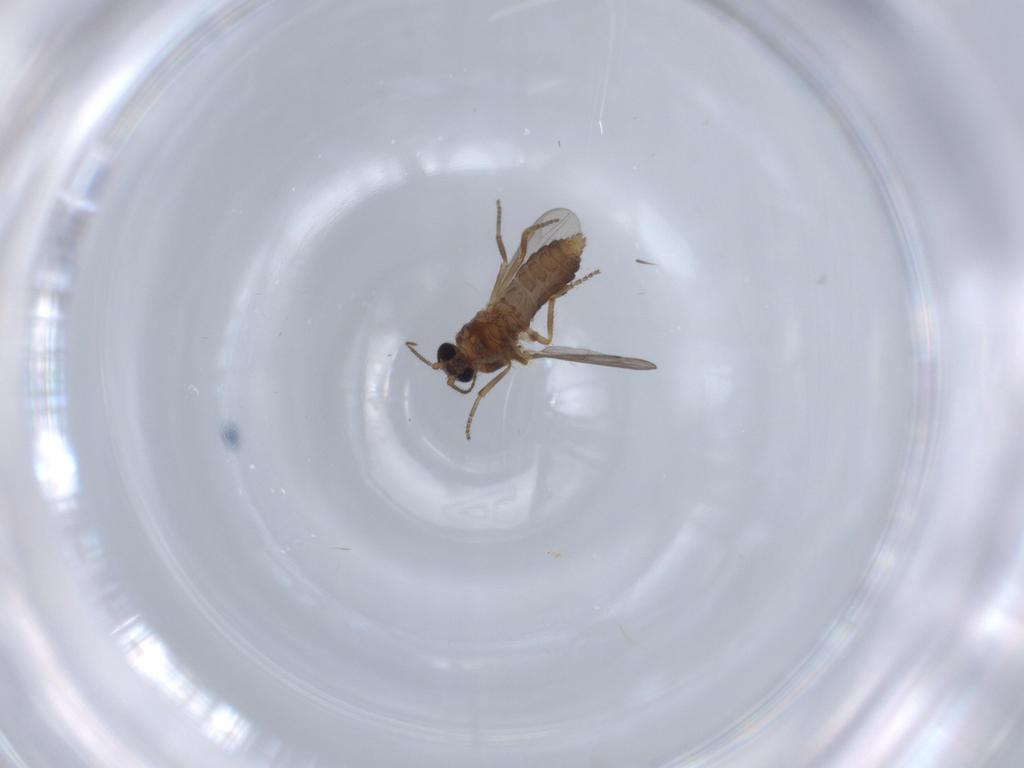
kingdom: Animalia
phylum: Arthropoda
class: Insecta
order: Diptera
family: Ceratopogonidae
